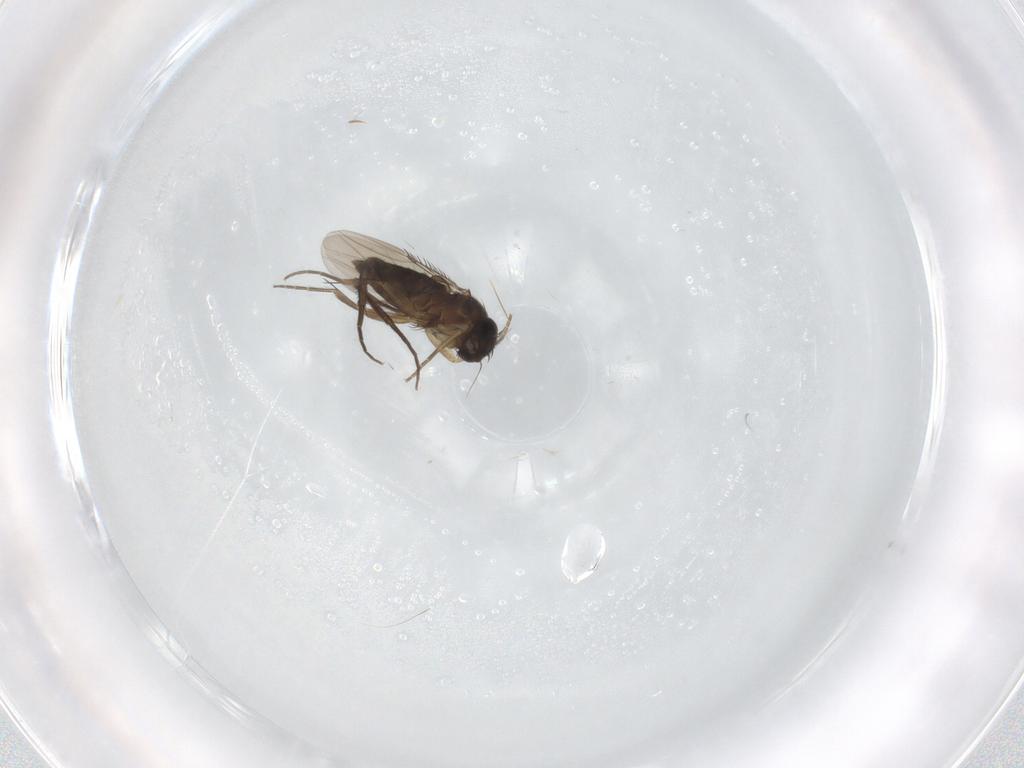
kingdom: Animalia
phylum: Arthropoda
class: Insecta
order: Diptera
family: Phoridae
